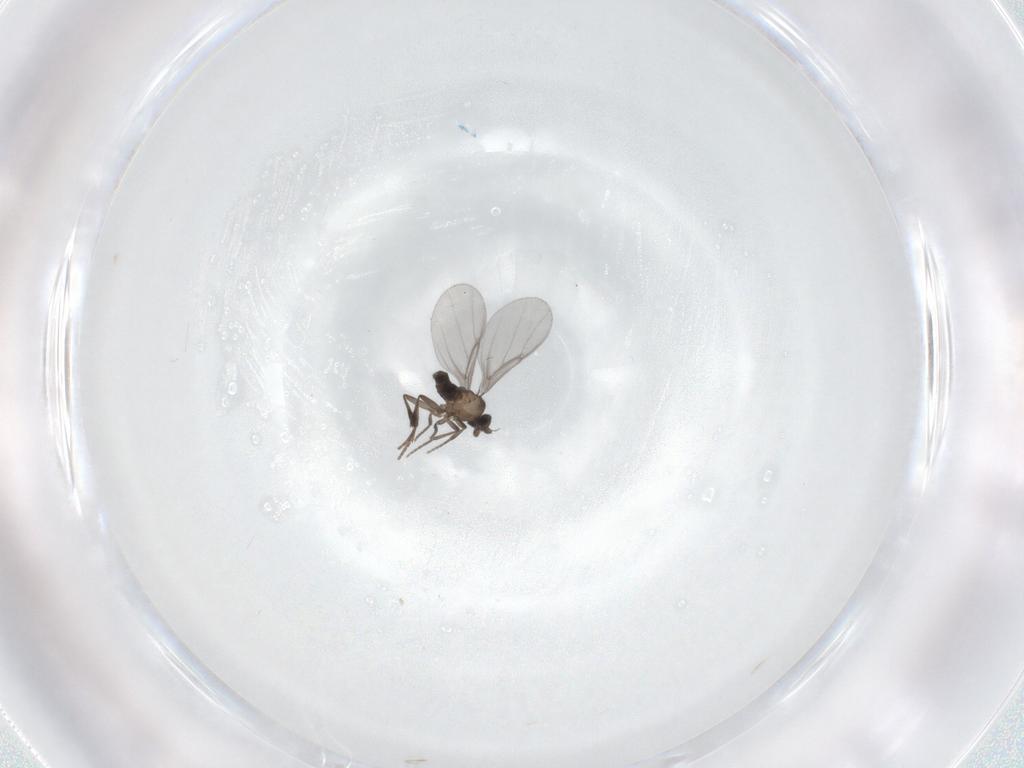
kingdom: Animalia
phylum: Arthropoda
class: Insecta
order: Diptera
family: Phoridae
